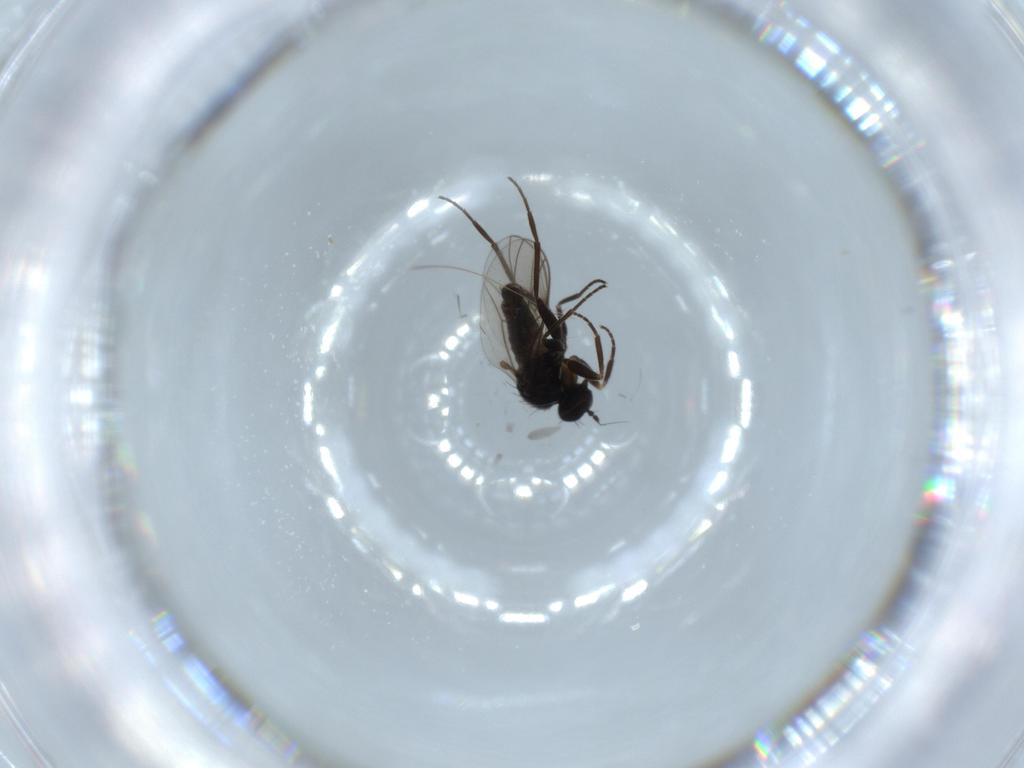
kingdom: Animalia
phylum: Arthropoda
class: Insecta
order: Diptera
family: Hybotidae
